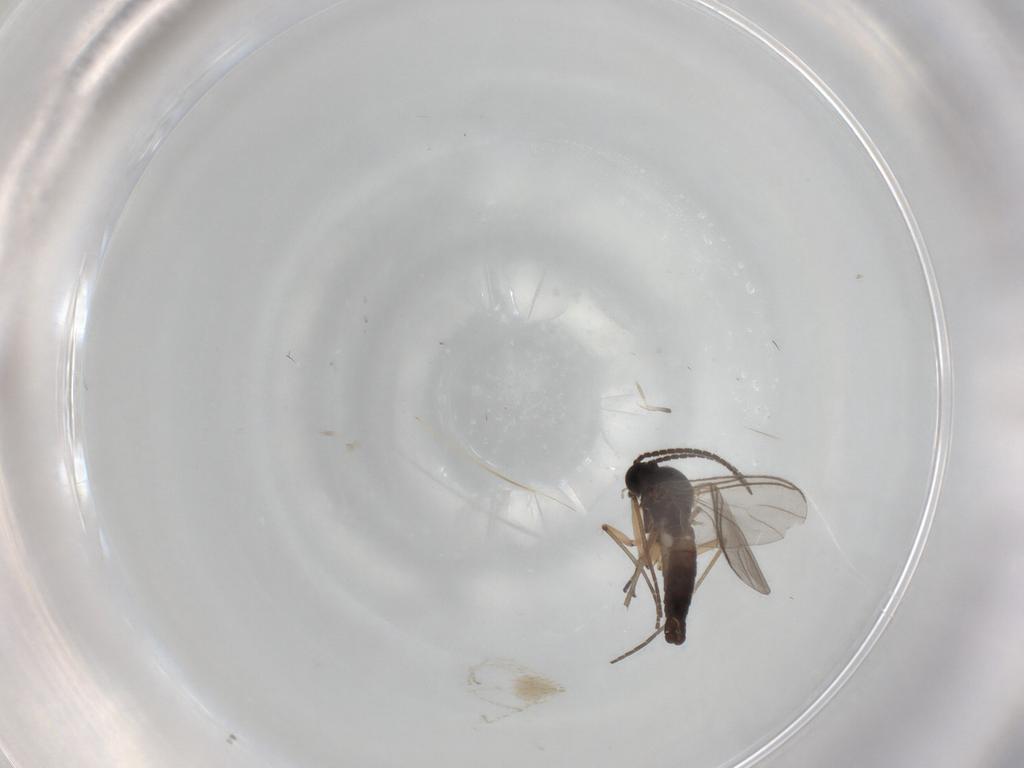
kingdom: Animalia
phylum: Arthropoda
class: Insecta
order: Diptera
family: Sciaridae
